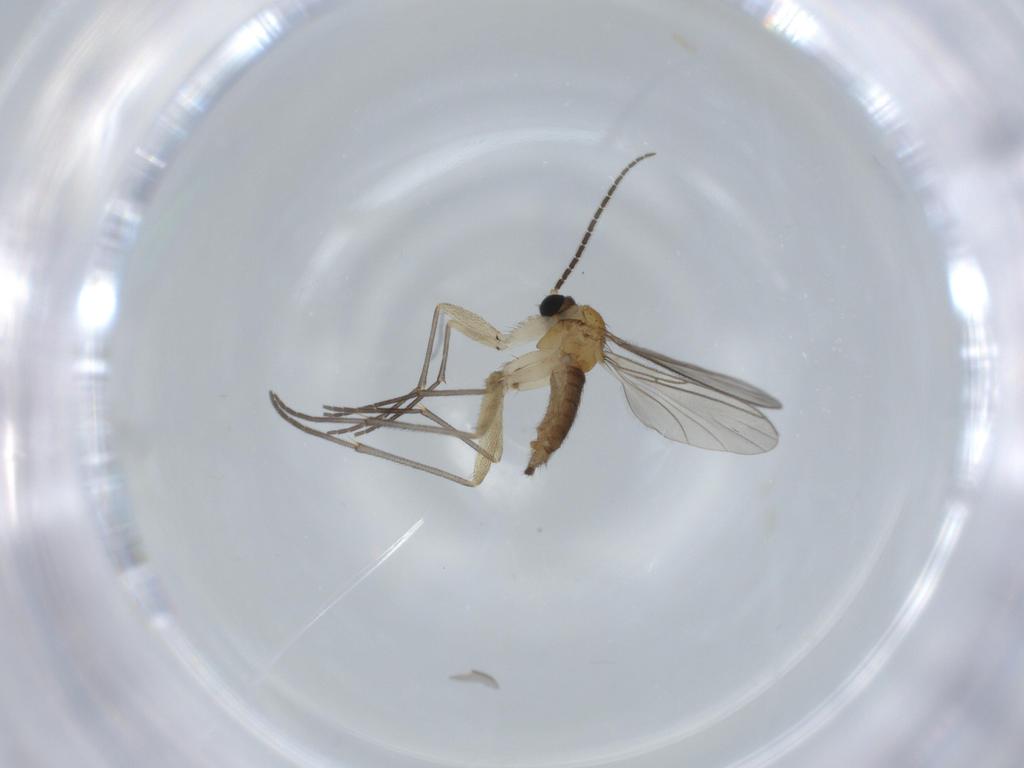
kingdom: Animalia
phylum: Arthropoda
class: Insecta
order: Diptera
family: Sciaridae
